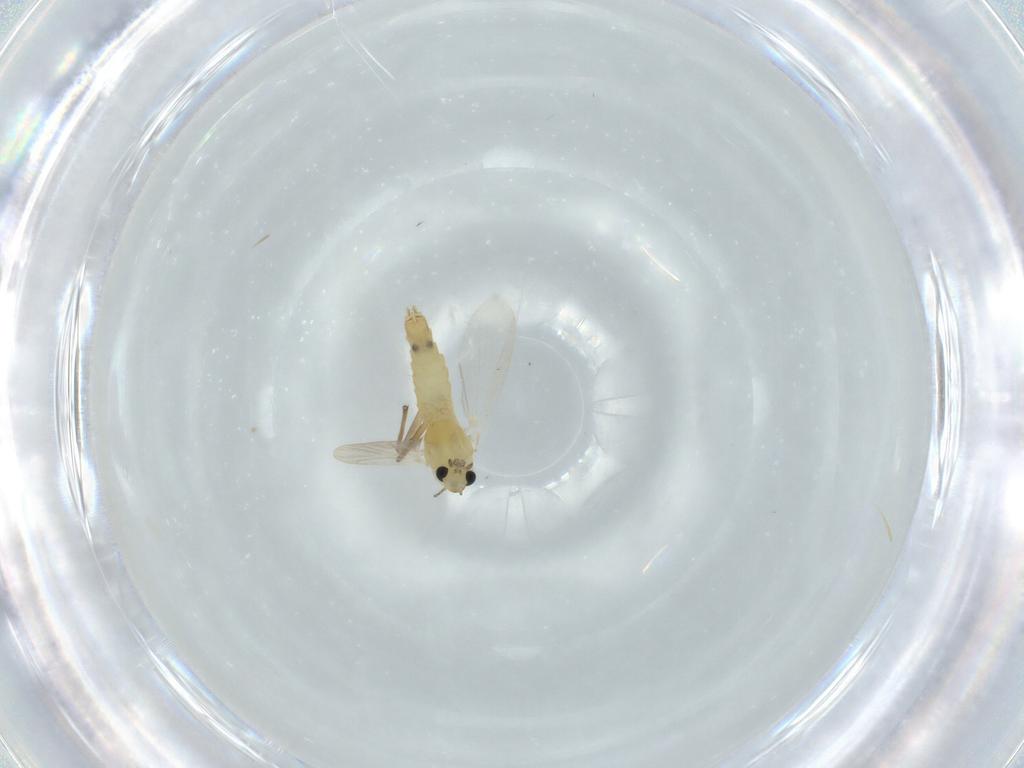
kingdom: Animalia
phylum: Arthropoda
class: Insecta
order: Diptera
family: Chironomidae
